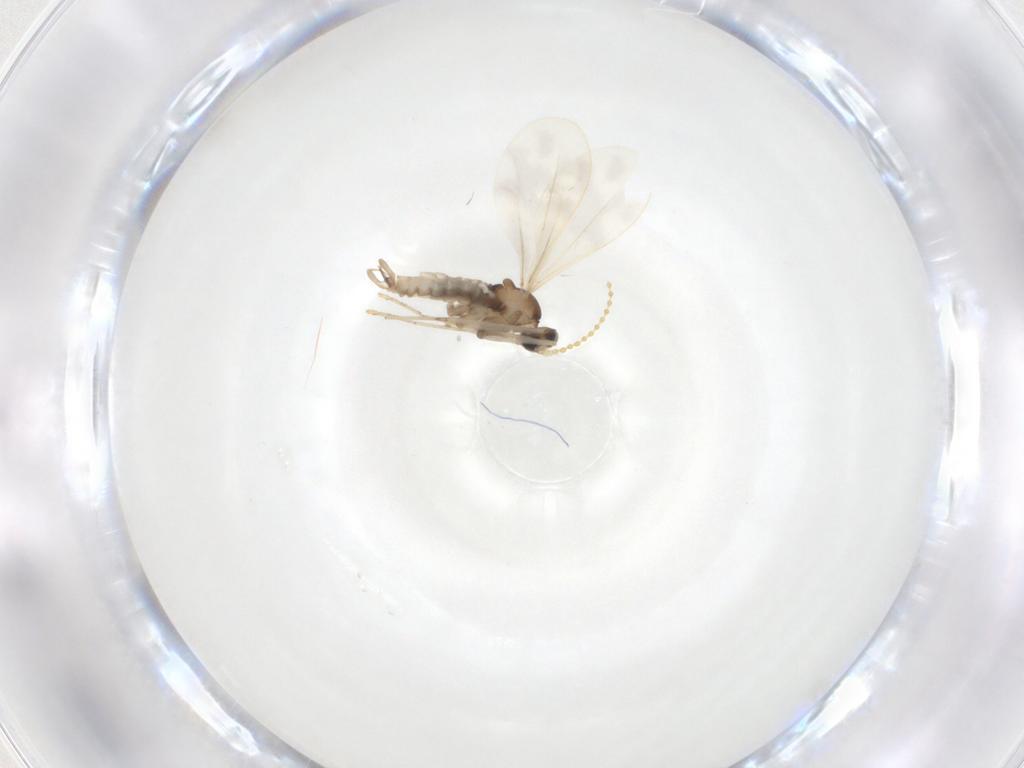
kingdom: Animalia
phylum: Arthropoda
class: Insecta
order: Diptera
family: Cecidomyiidae
